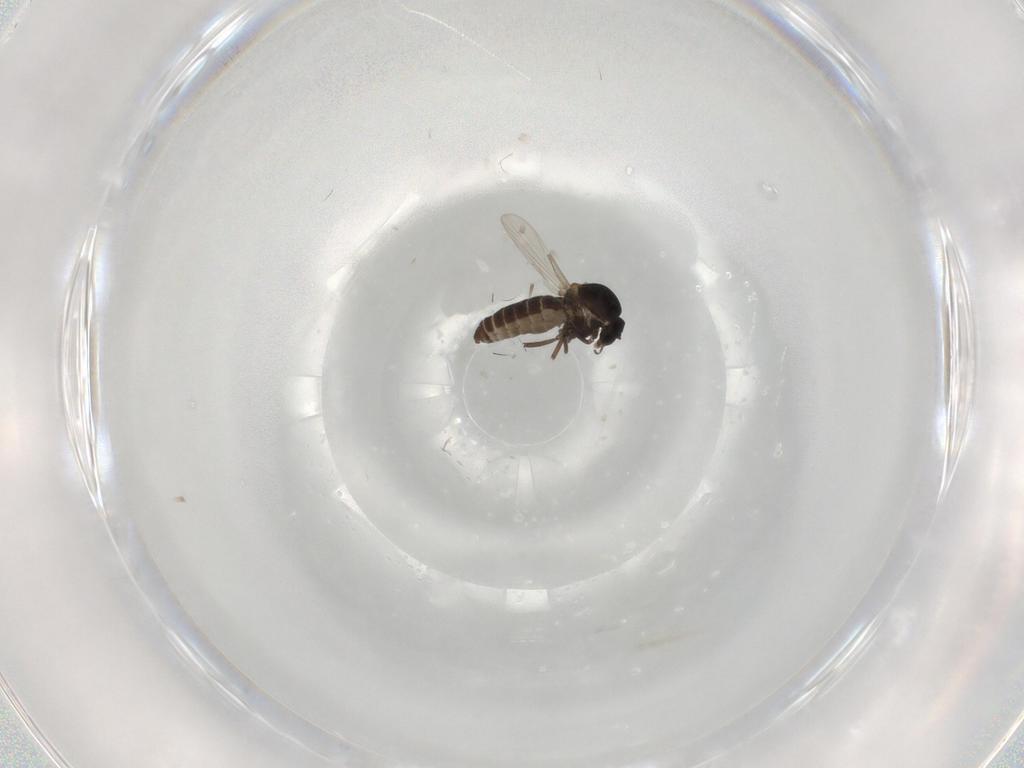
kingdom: Animalia
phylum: Arthropoda
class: Insecta
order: Diptera
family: Ceratopogonidae
